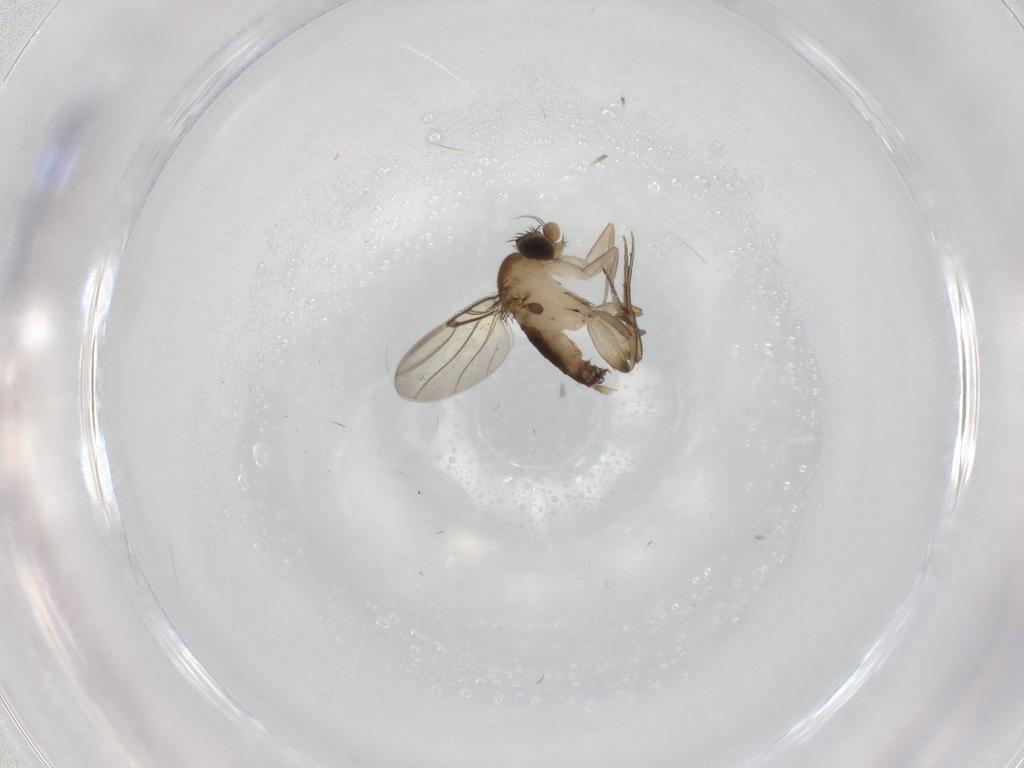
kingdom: Animalia
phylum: Arthropoda
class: Insecta
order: Diptera
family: Phoridae
